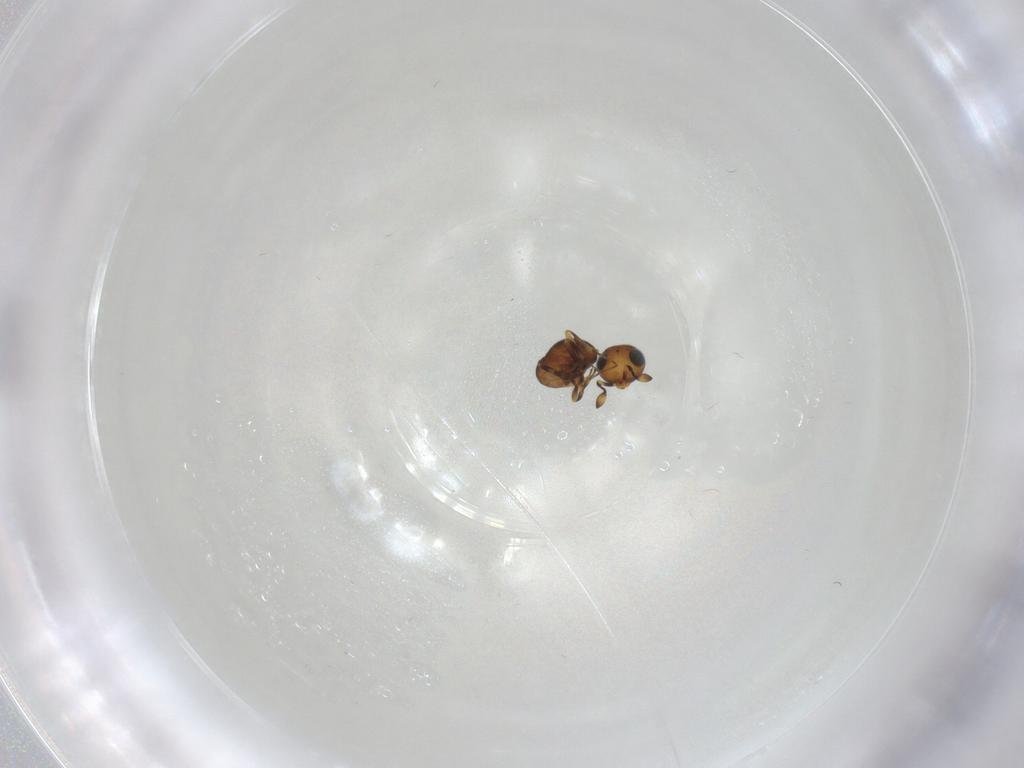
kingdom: Animalia
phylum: Arthropoda
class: Insecta
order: Hymenoptera
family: Scelionidae
